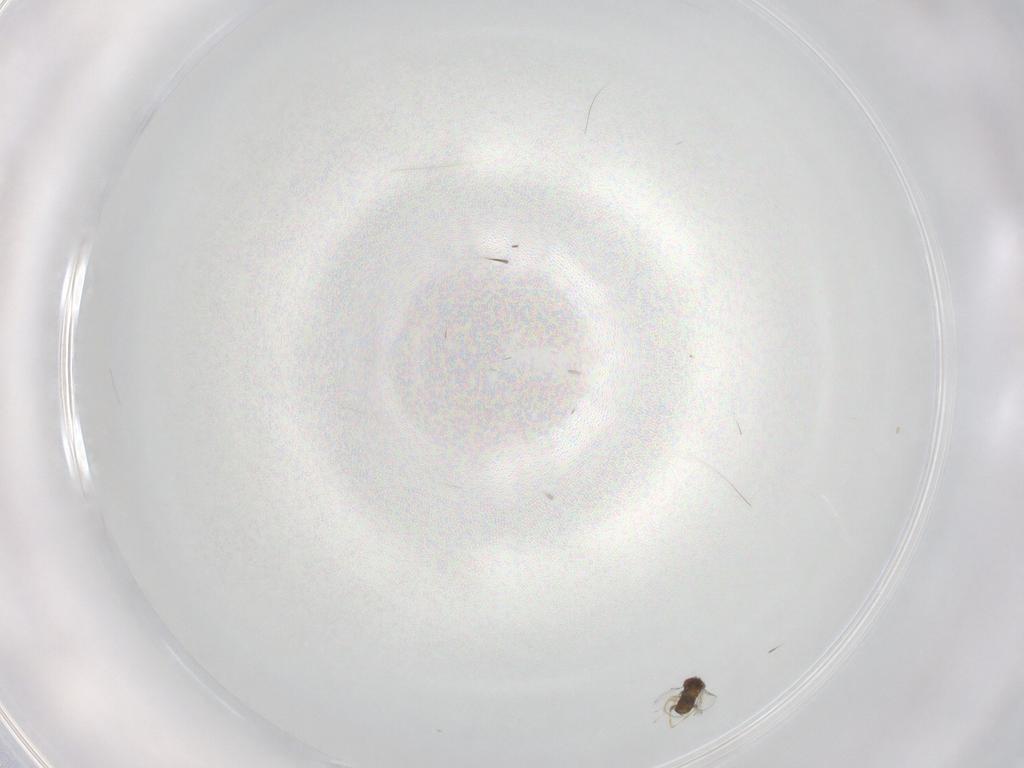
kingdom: Animalia
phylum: Arthropoda
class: Insecta
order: Hymenoptera
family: Trichogrammatidae
